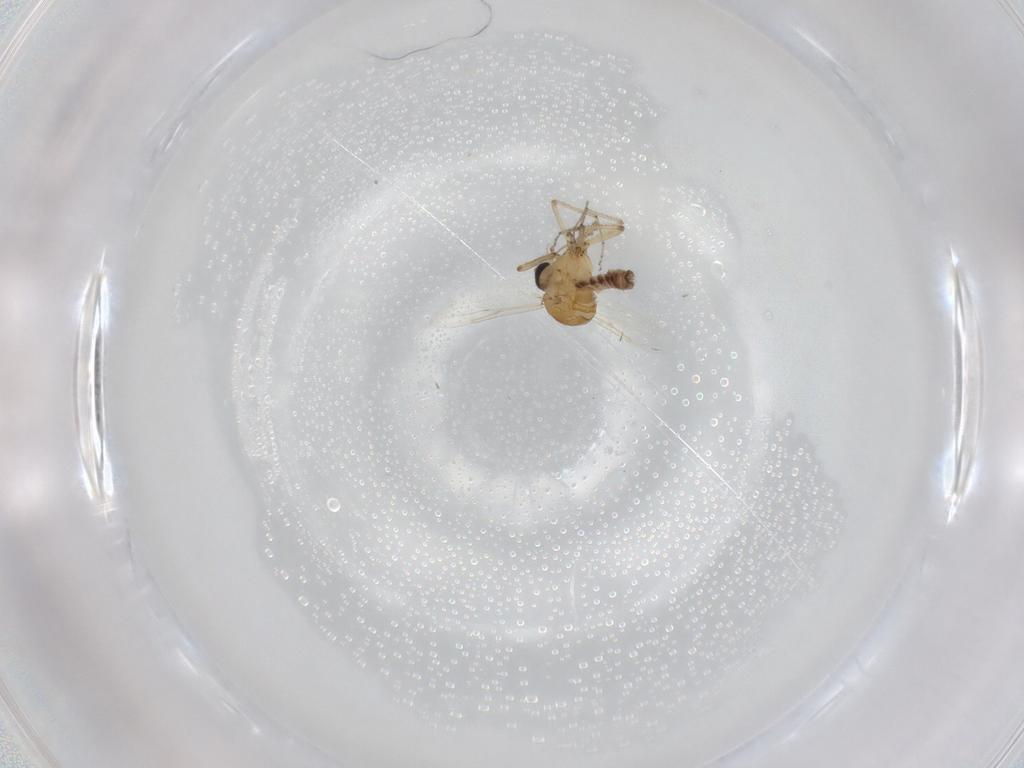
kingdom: Animalia
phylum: Arthropoda
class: Insecta
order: Diptera
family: Ceratopogonidae
